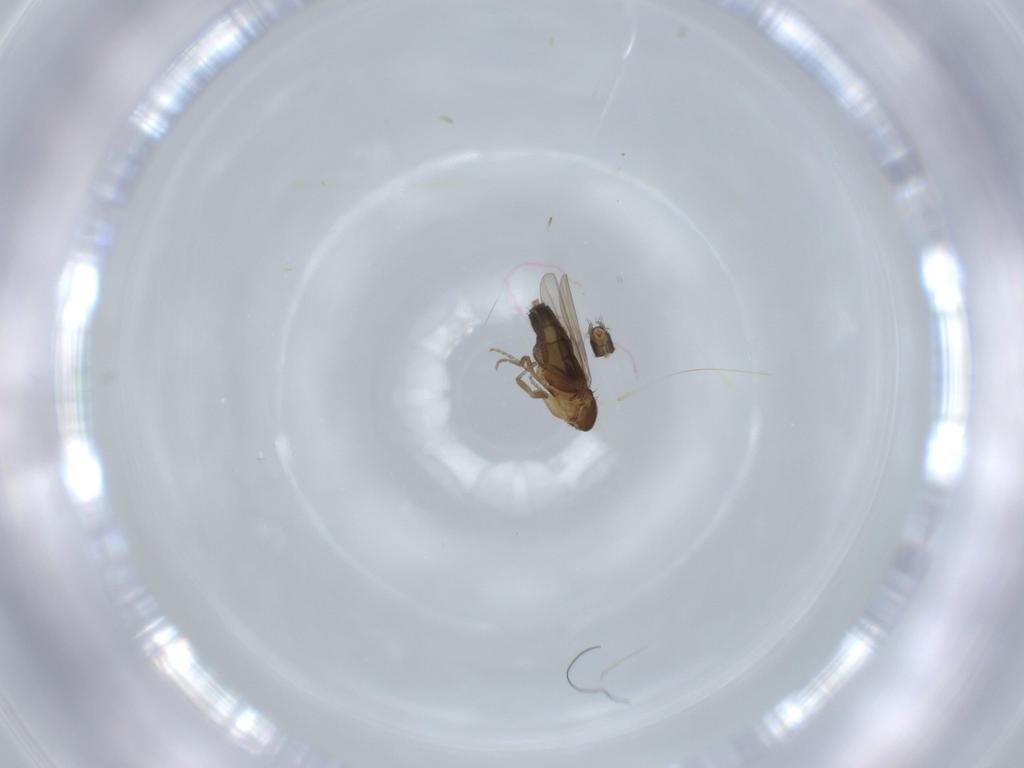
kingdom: Animalia
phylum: Arthropoda
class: Insecta
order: Diptera
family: Phoridae
